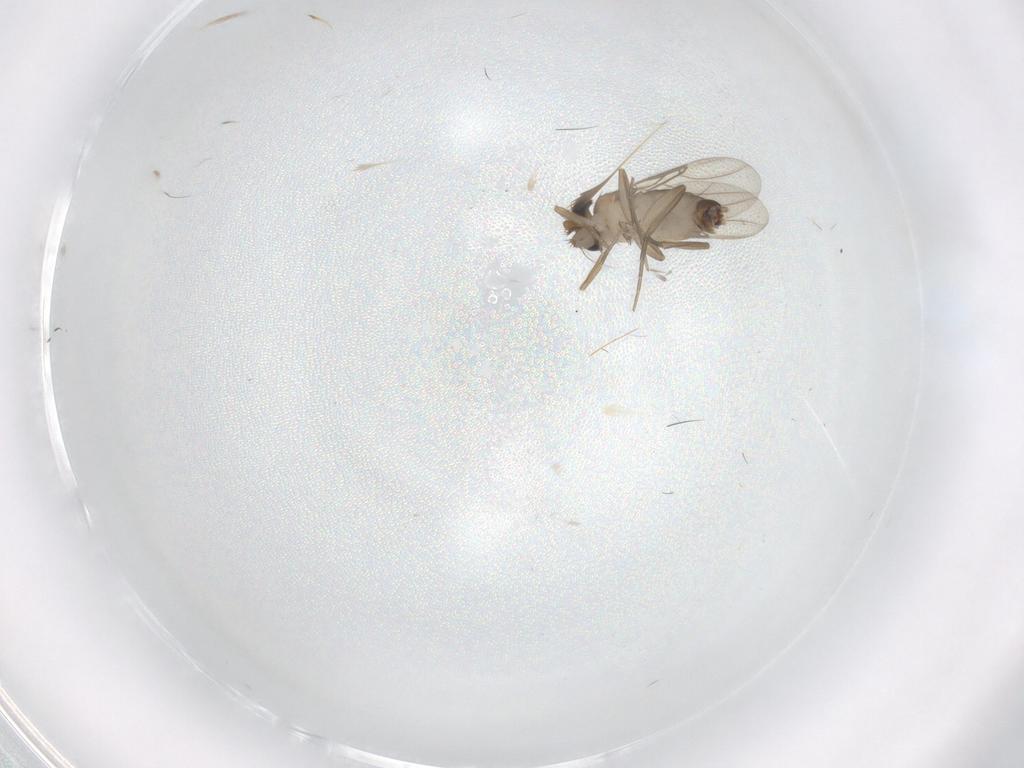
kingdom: Animalia
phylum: Arthropoda
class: Insecta
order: Diptera
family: Phoridae
